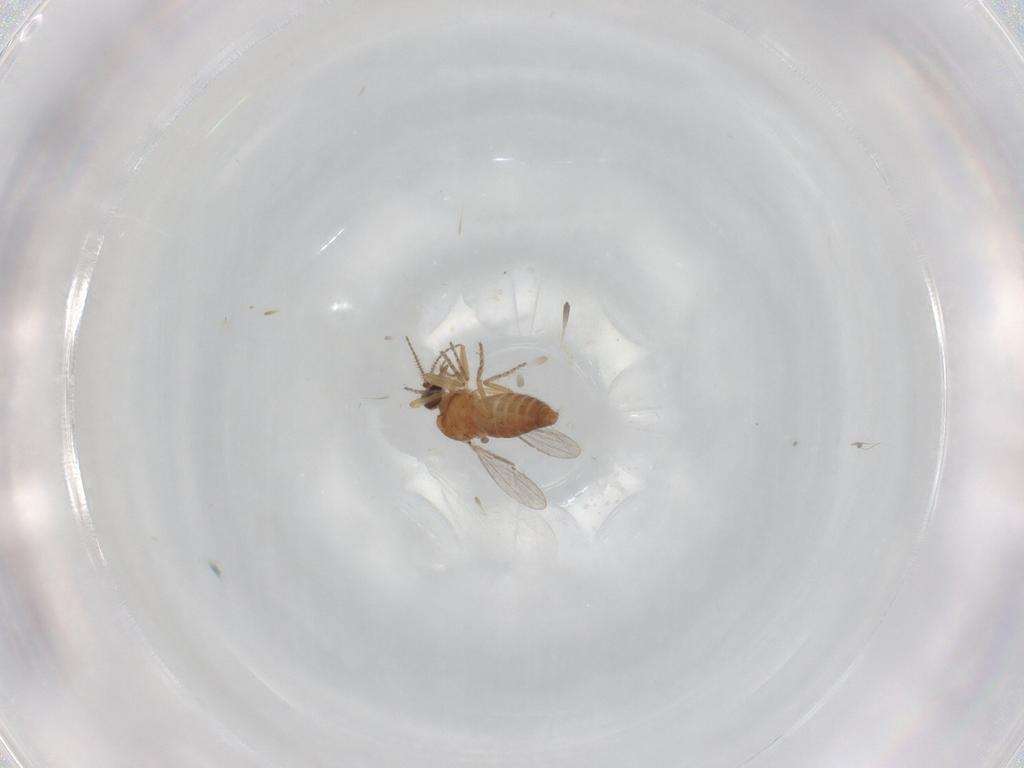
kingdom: Animalia
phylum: Arthropoda
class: Insecta
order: Diptera
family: Ceratopogonidae
